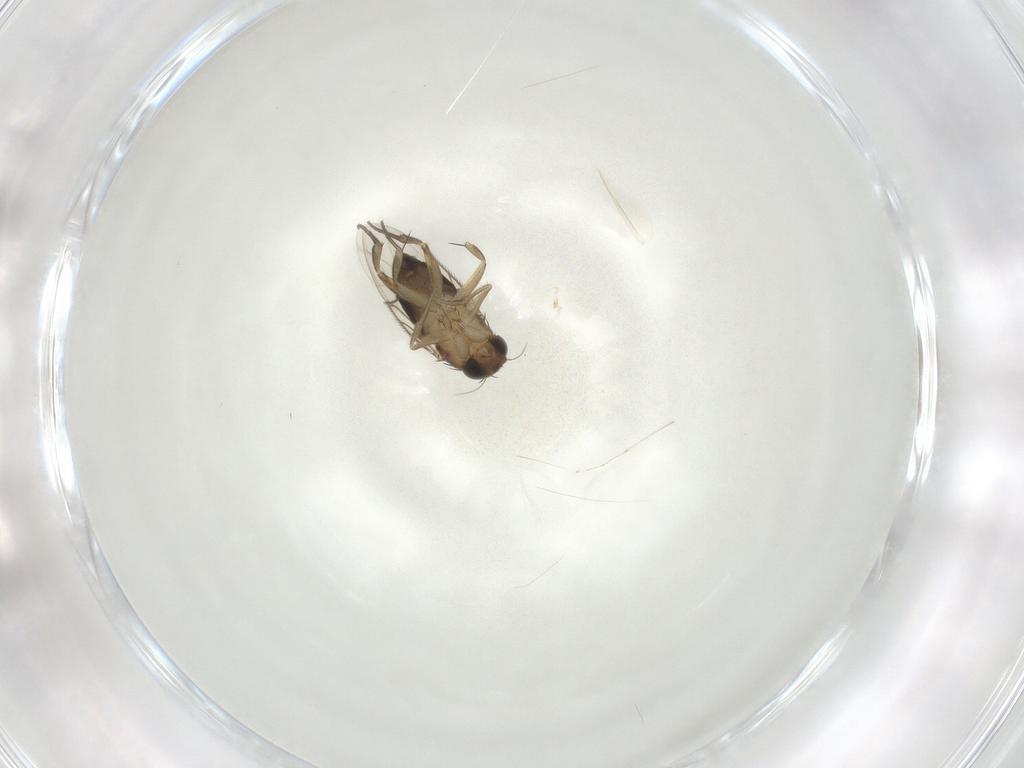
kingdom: Animalia
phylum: Arthropoda
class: Insecta
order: Diptera
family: Phoridae
